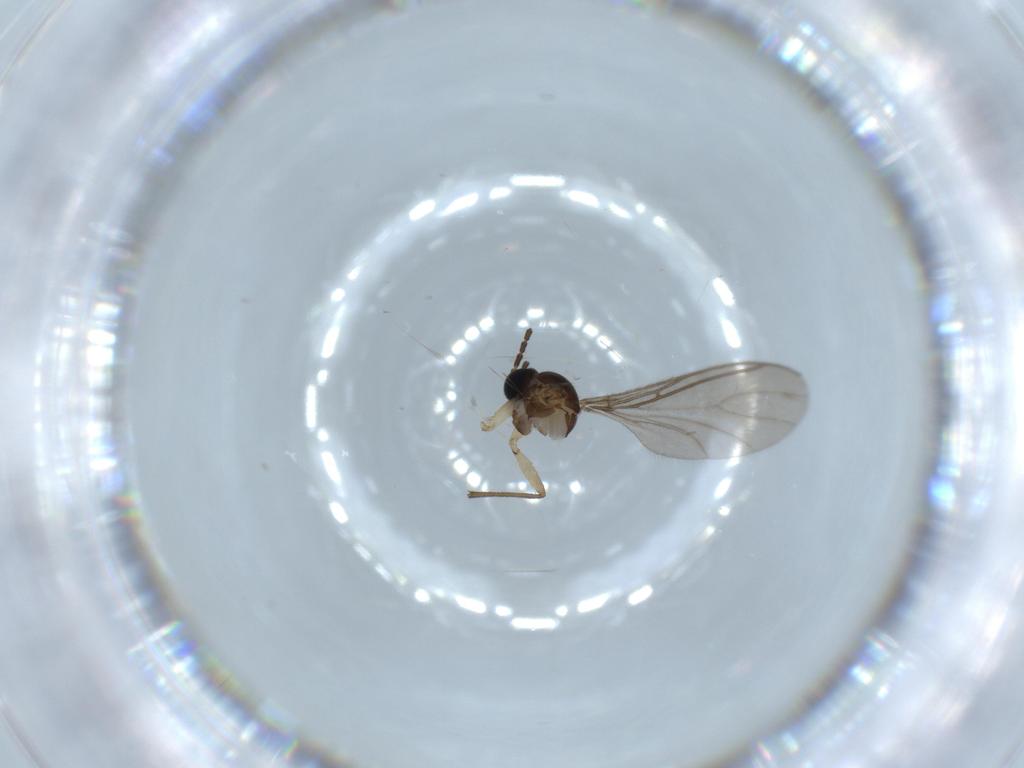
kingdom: Animalia
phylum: Arthropoda
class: Insecta
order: Diptera
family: Sciaridae
